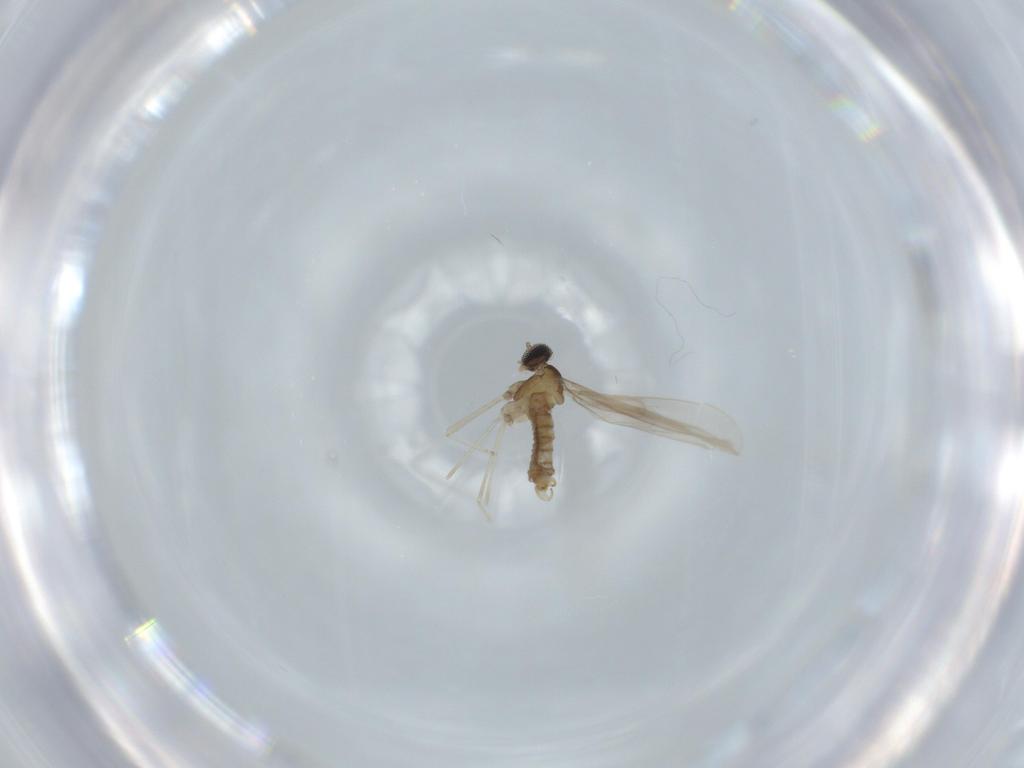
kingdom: Animalia
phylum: Arthropoda
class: Insecta
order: Diptera
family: Cecidomyiidae
